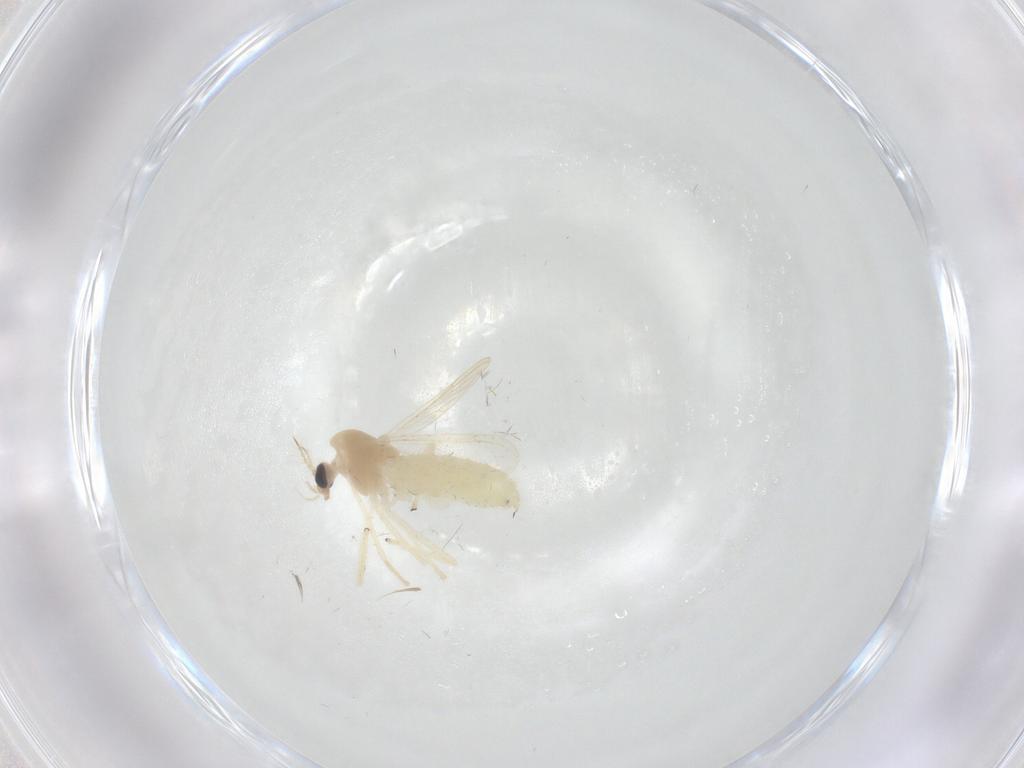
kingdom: Animalia
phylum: Arthropoda
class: Insecta
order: Diptera
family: Chironomidae
